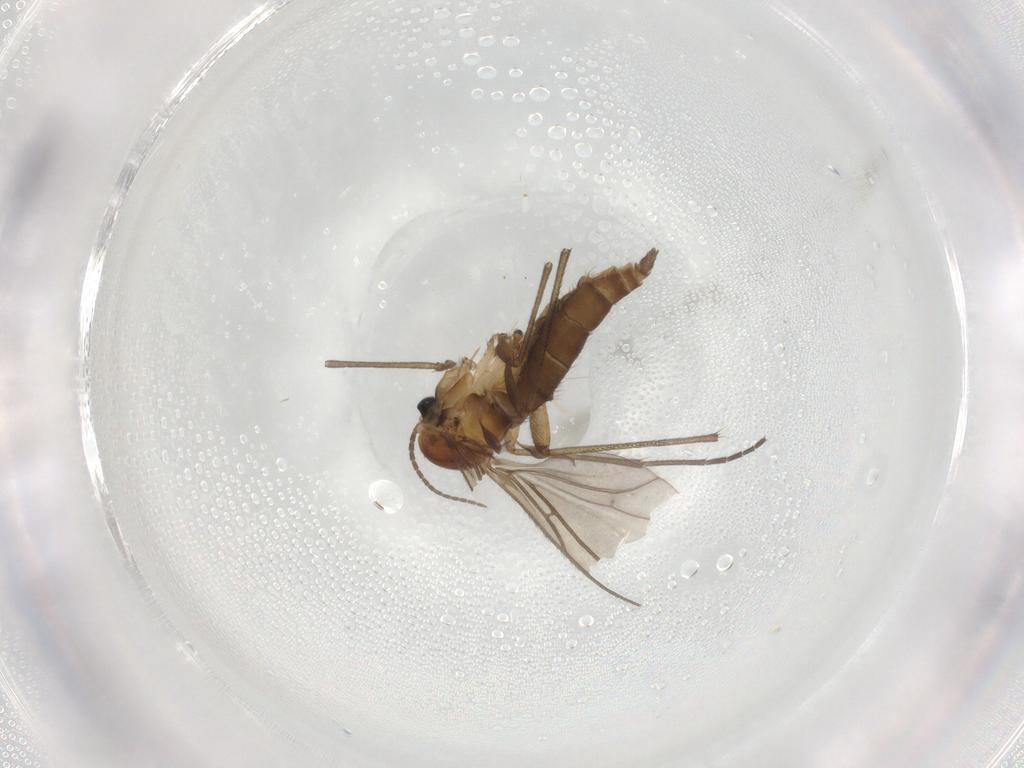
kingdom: Animalia
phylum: Arthropoda
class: Insecta
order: Diptera
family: Sciaridae
